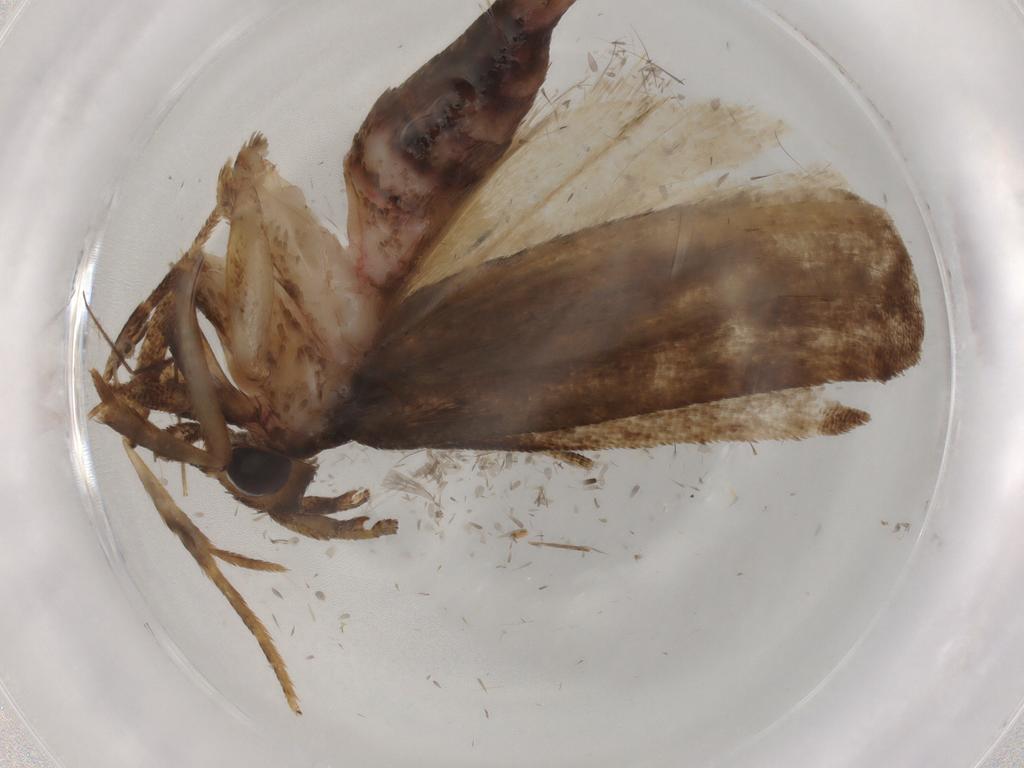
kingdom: Animalia
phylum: Arthropoda
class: Insecta
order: Lepidoptera
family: Autostichidae
